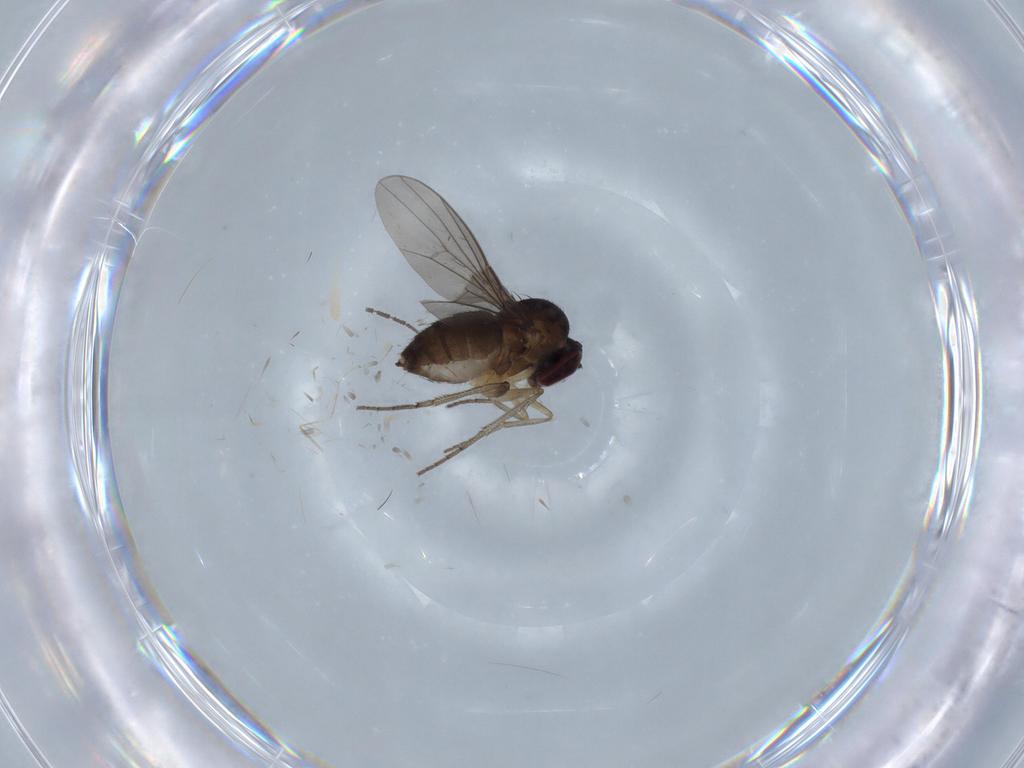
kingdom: Animalia
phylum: Arthropoda
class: Insecta
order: Diptera
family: Dolichopodidae
